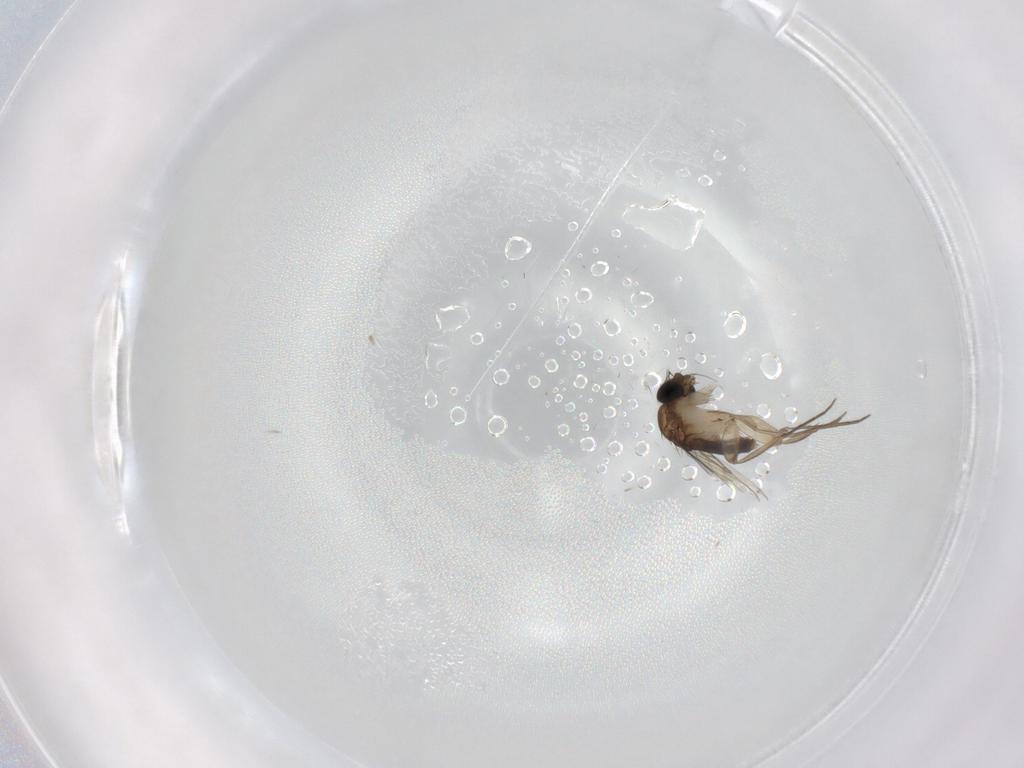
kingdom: Animalia
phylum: Arthropoda
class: Insecta
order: Diptera
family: Phoridae
